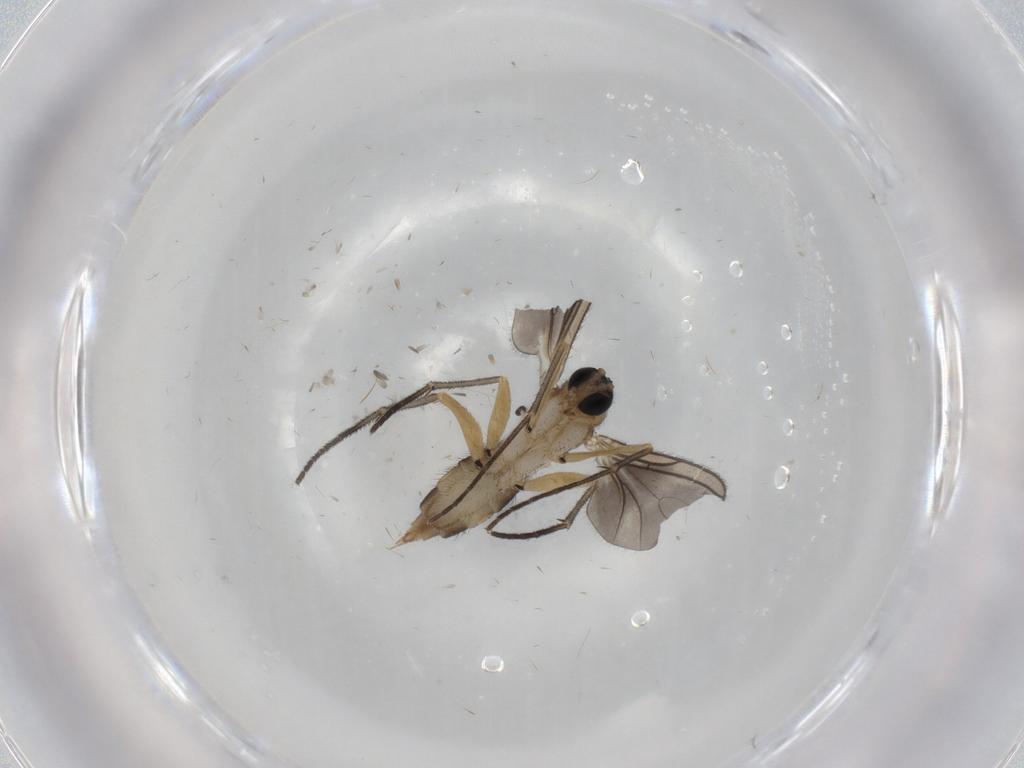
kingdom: Animalia
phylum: Arthropoda
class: Insecta
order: Diptera
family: Sciaridae
